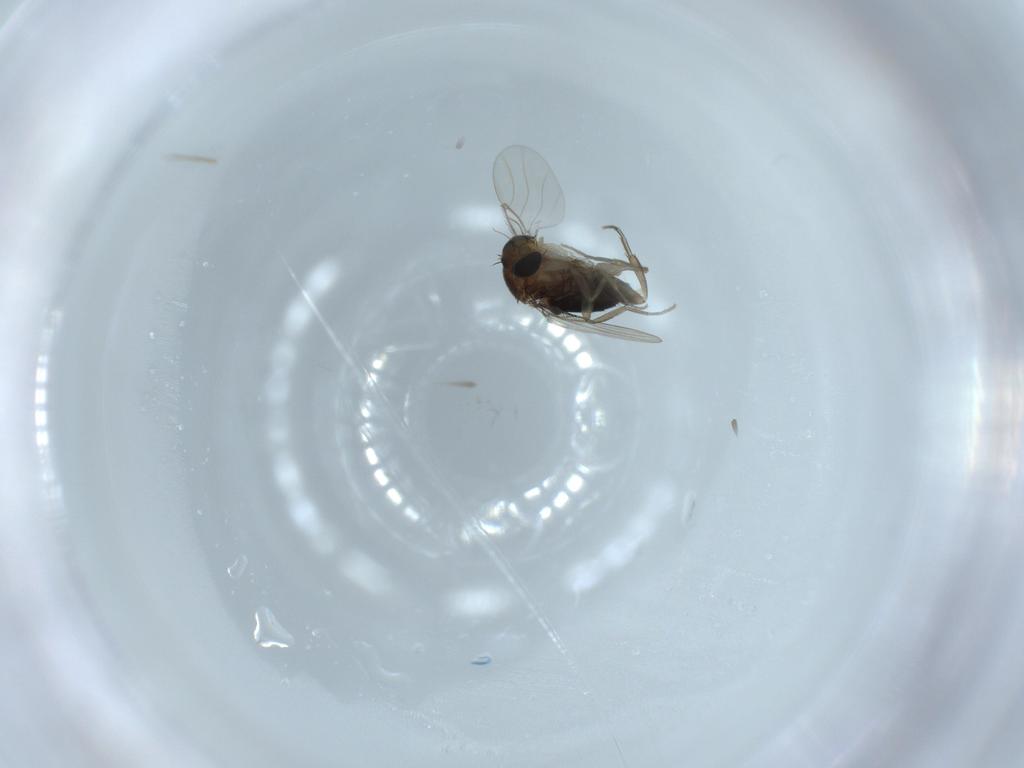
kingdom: Animalia
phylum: Arthropoda
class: Insecta
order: Diptera
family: Phoridae
